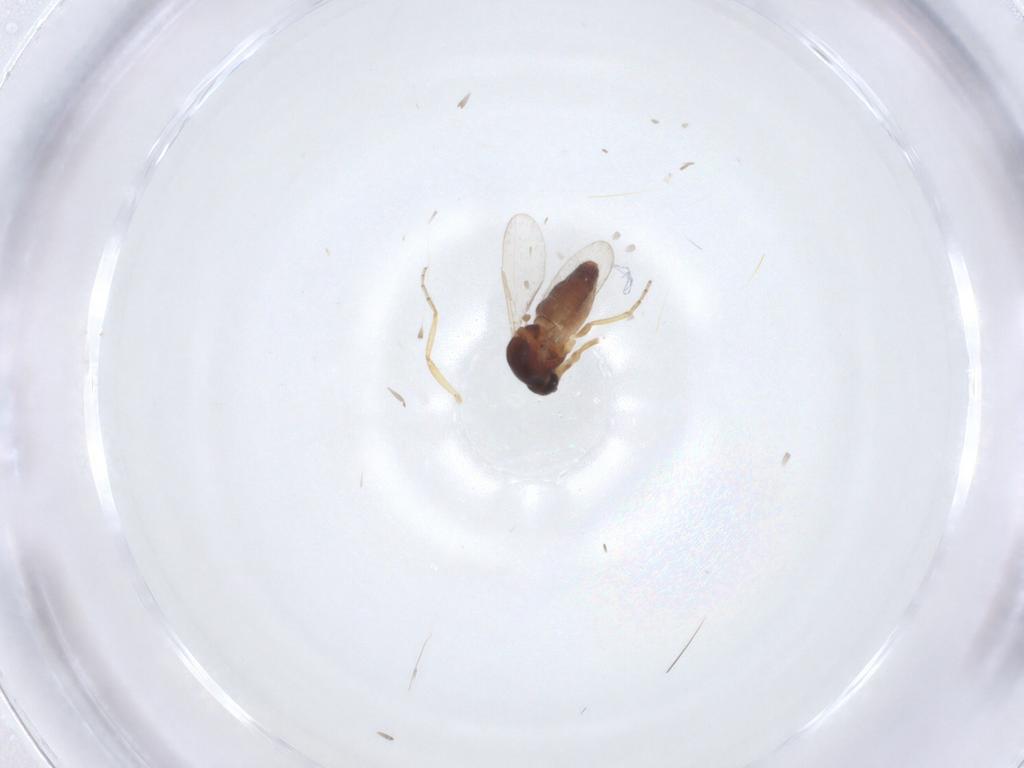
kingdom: Animalia
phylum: Arthropoda
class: Insecta
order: Diptera
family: Ceratopogonidae
